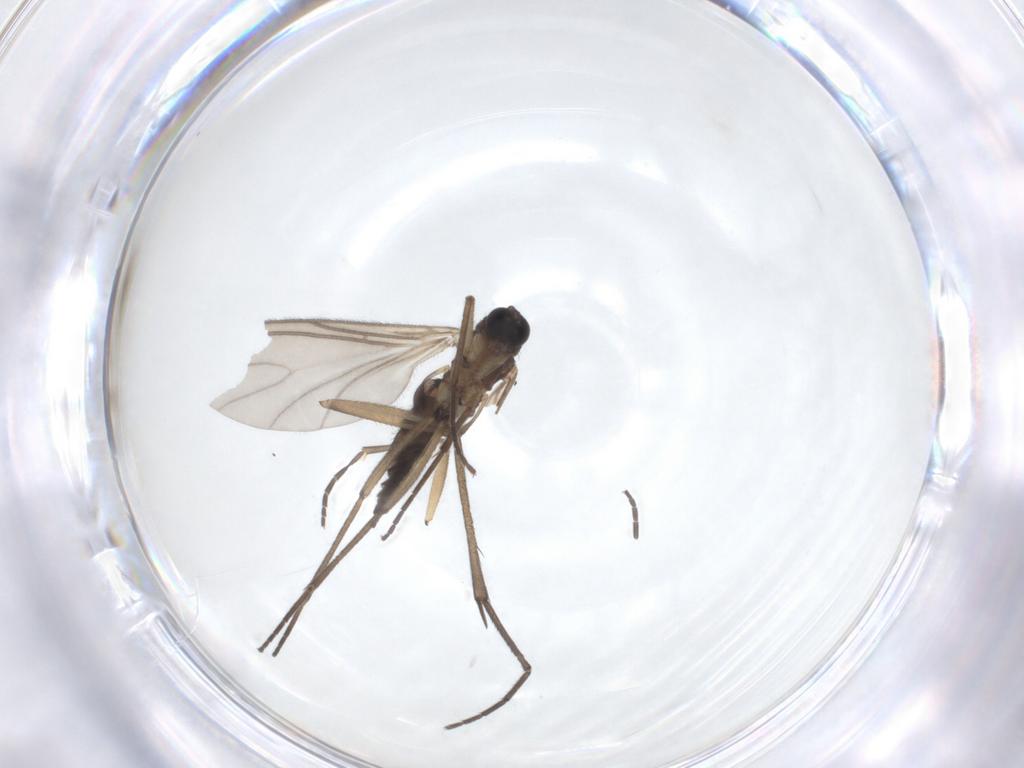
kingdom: Animalia
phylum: Arthropoda
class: Insecta
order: Diptera
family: Sciaridae
